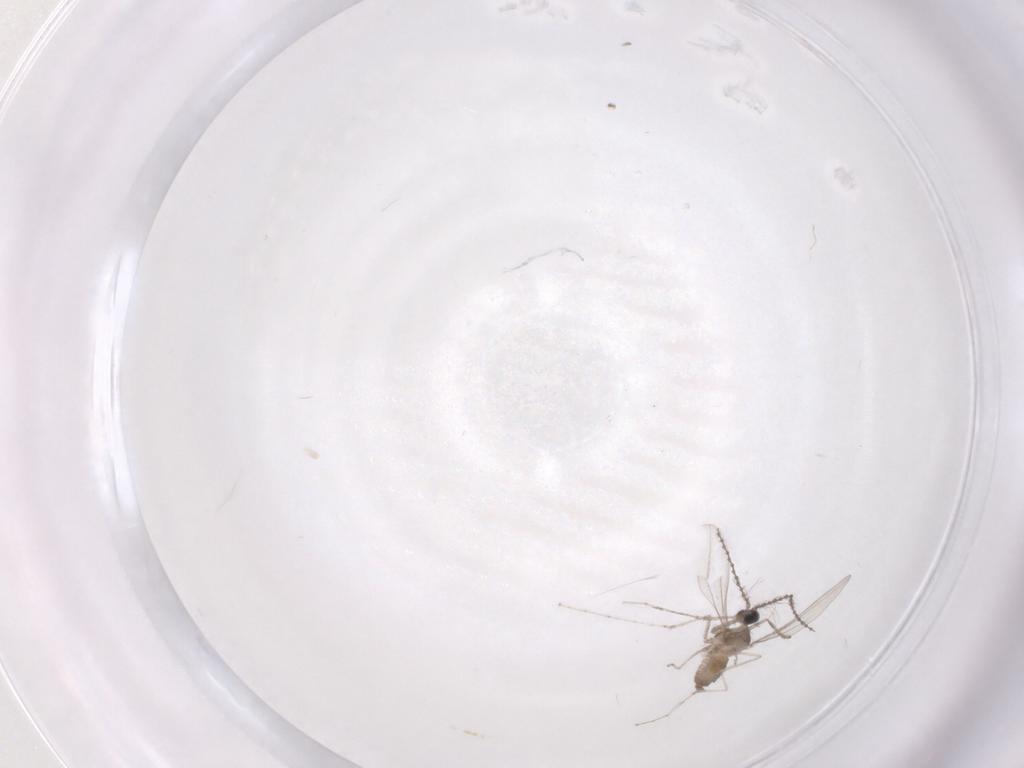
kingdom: Animalia
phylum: Arthropoda
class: Insecta
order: Diptera
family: Cecidomyiidae
